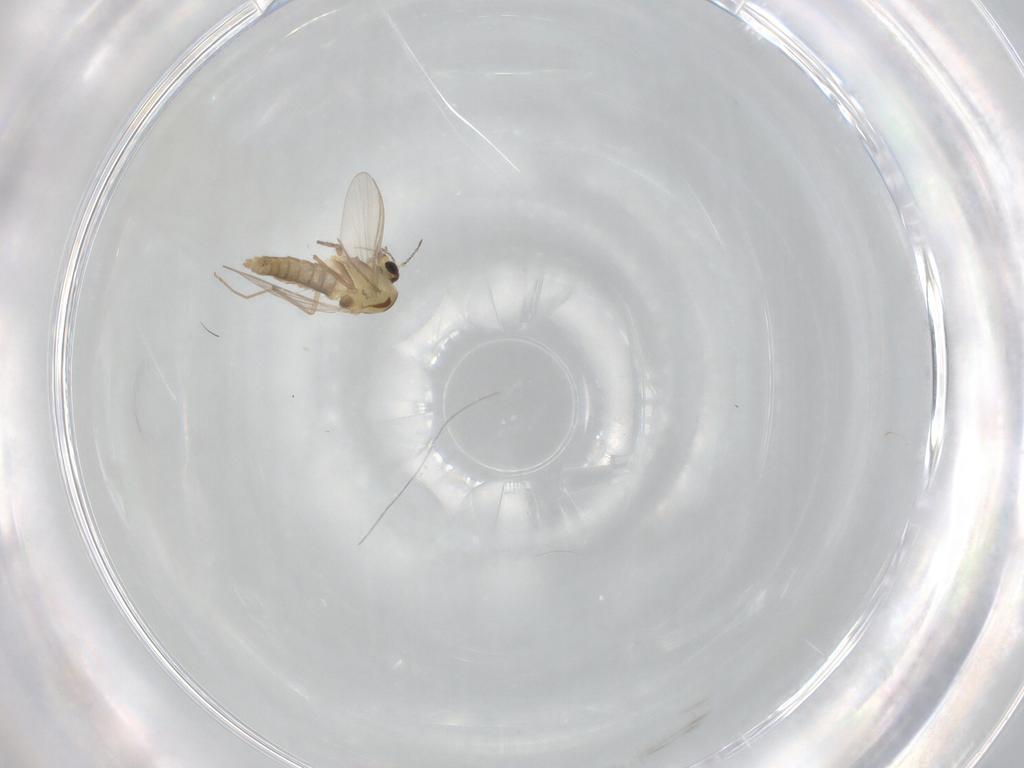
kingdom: Animalia
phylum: Arthropoda
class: Insecta
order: Diptera
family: Chironomidae
